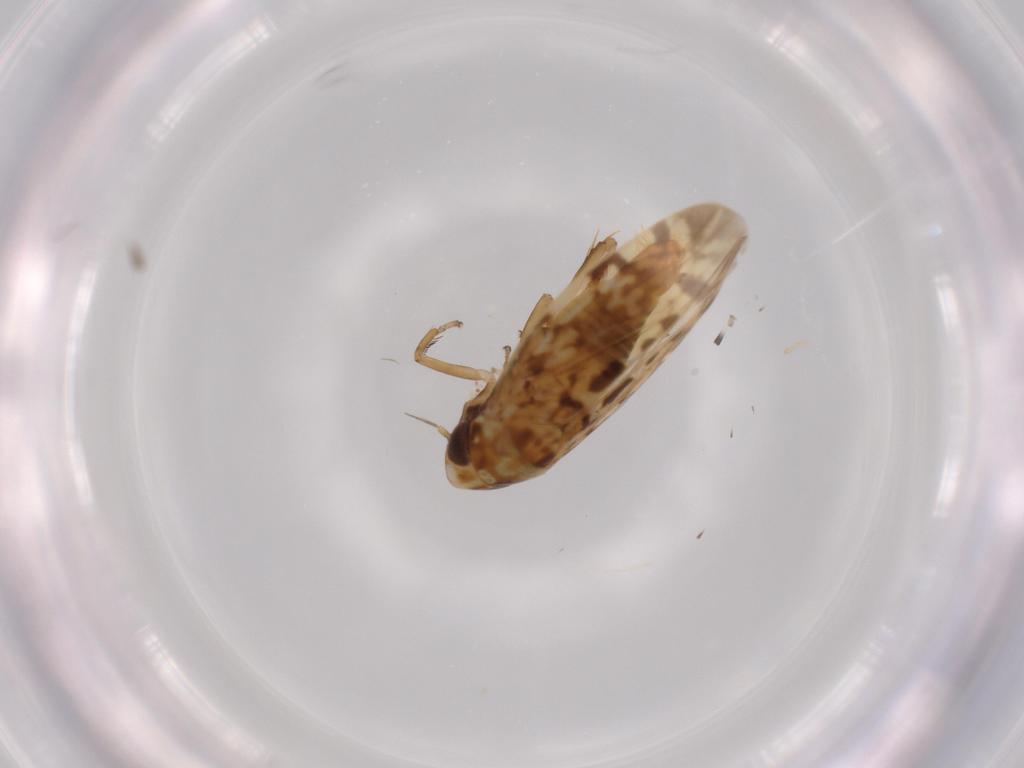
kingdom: Animalia
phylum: Arthropoda
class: Insecta
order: Hemiptera
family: Cicadellidae
